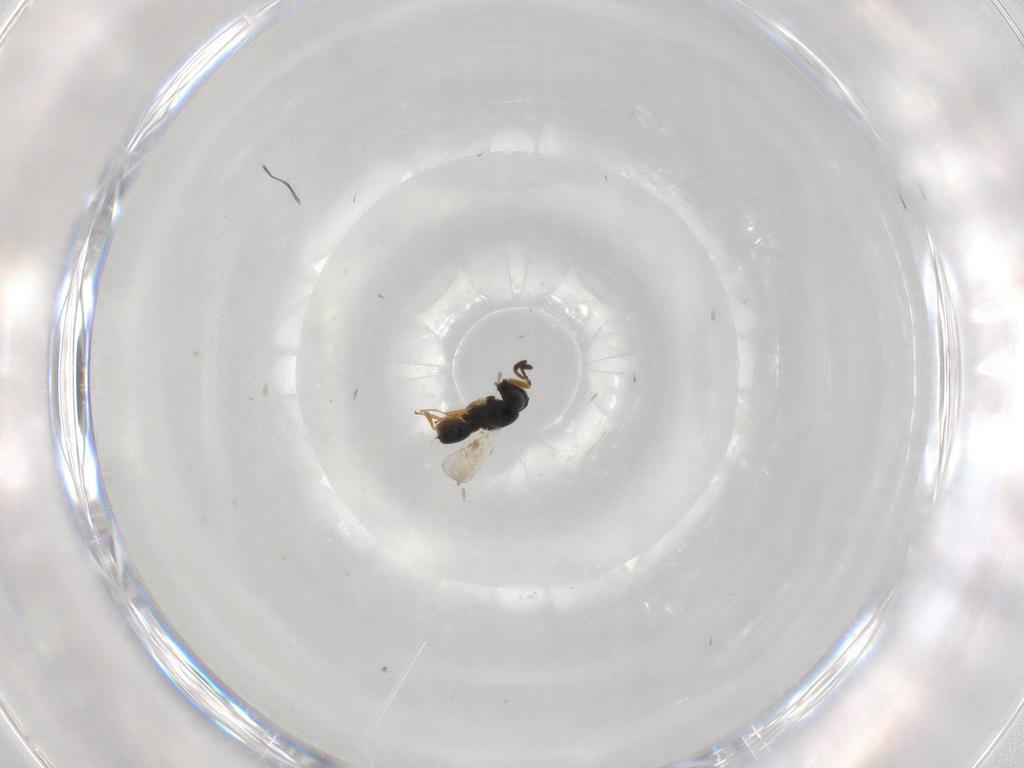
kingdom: Animalia
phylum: Arthropoda
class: Insecta
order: Hymenoptera
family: Scelionidae
